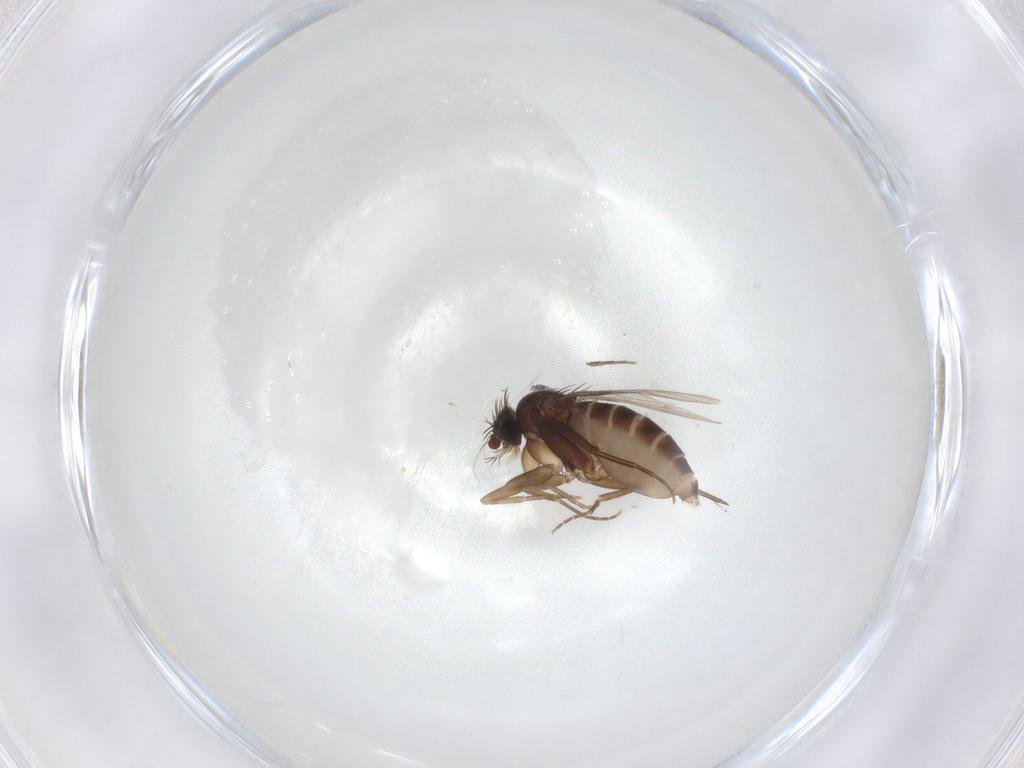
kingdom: Animalia
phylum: Arthropoda
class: Insecta
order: Diptera
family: Phoridae
